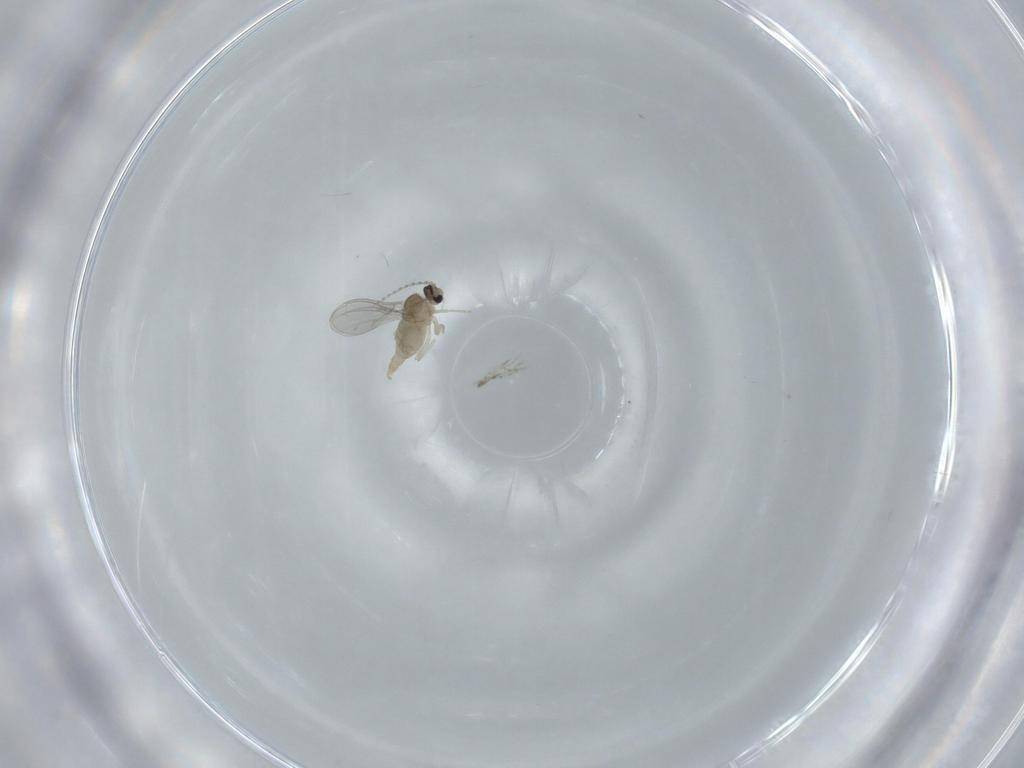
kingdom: Animalia
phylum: Arthropoda
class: Insecta
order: Diptera
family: Cecidomyiidae
